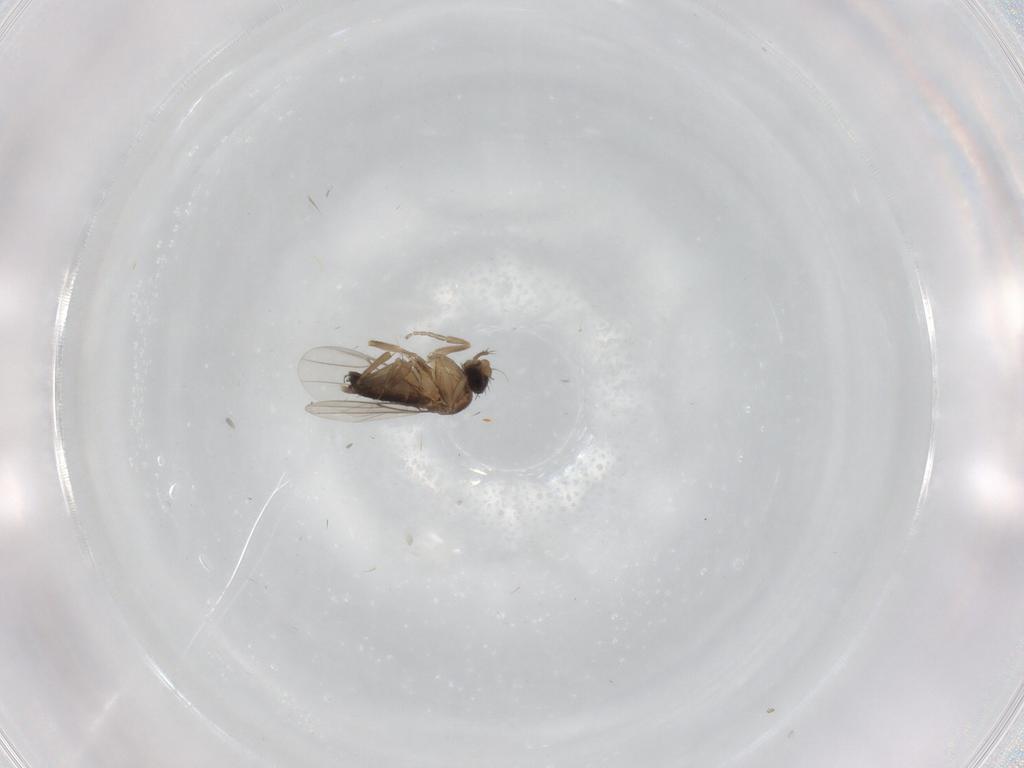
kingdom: Animalia
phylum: Arthropoda
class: Insecta
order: Diptera
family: Phoridae
